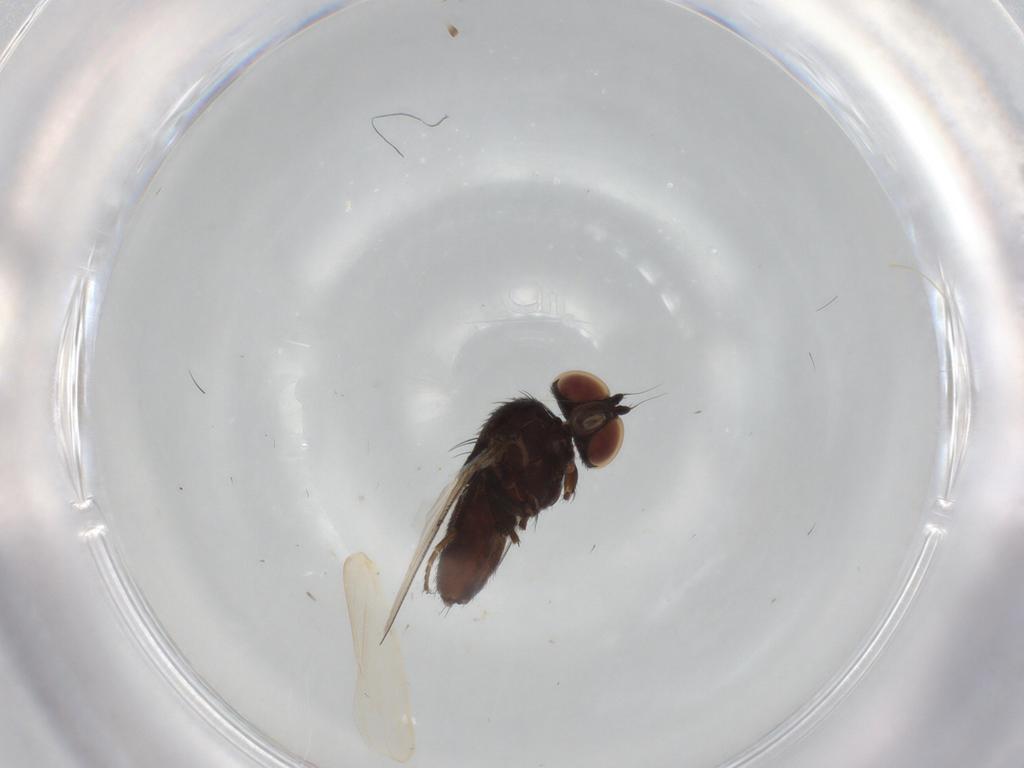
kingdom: Animalia
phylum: Arthropoda
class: Insecta
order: Diptera
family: Milichiidae
